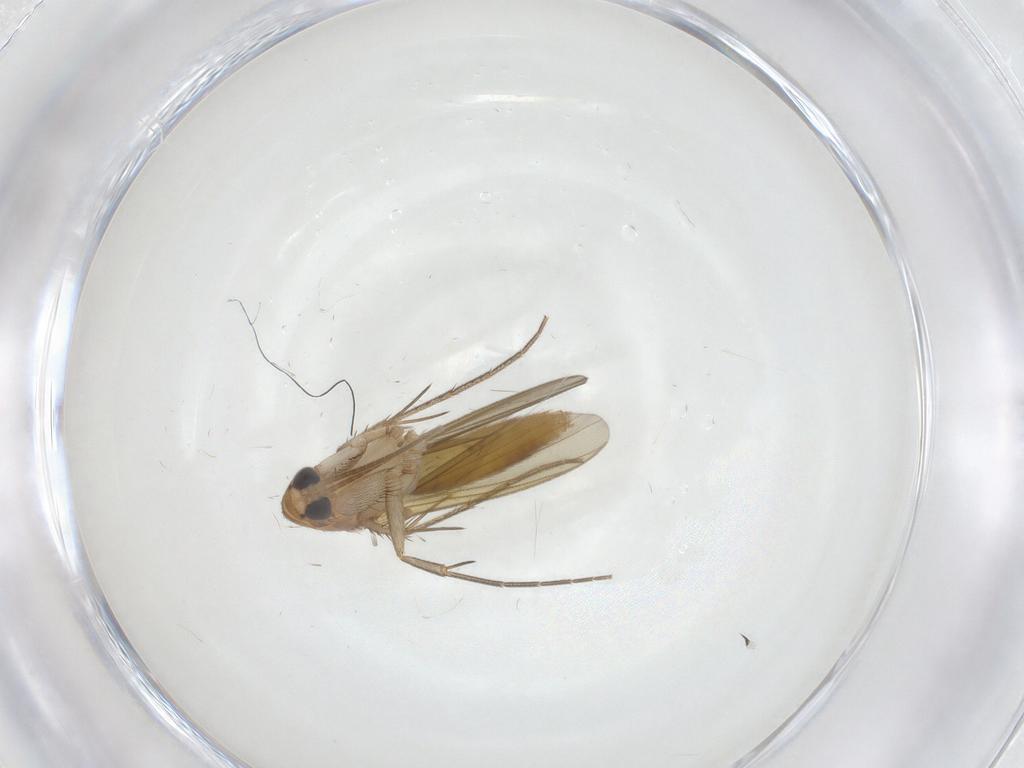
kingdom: Animalia
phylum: Arthropoda
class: Insecta
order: Diptera
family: Mycetophilidae
